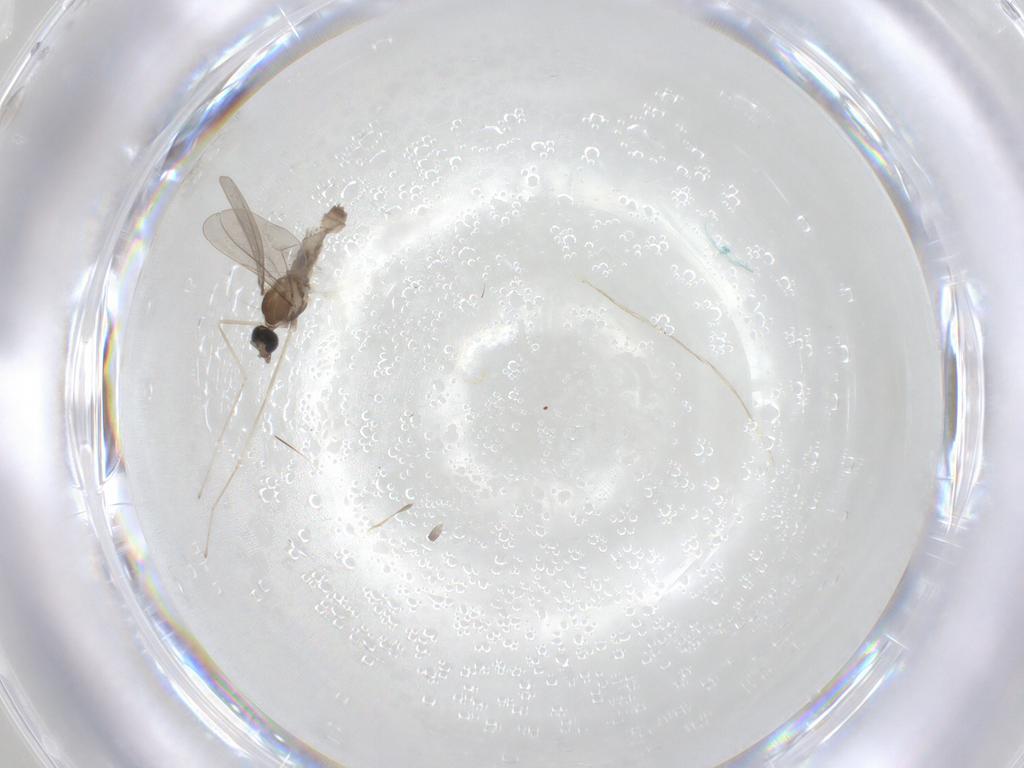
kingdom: Animalia
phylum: Arthropoda
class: Insecta
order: Diptera
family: Cecidomyiidae
